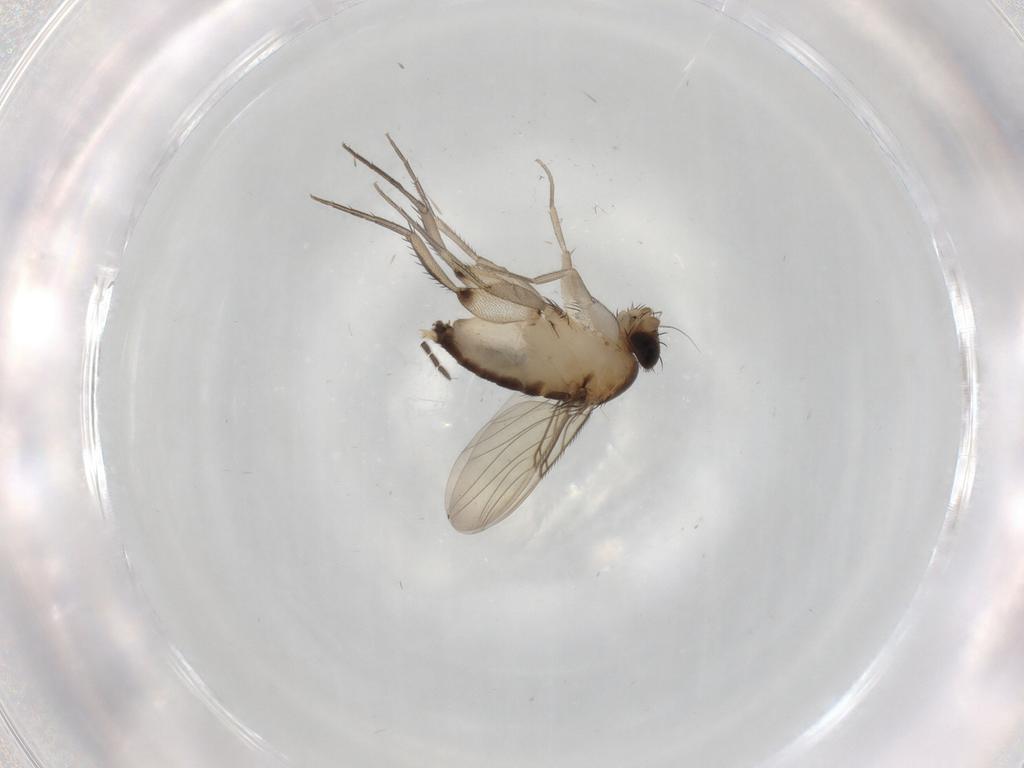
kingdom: Animalia
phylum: Arthropoda
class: Insecta
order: Diptera
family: Phoridae
